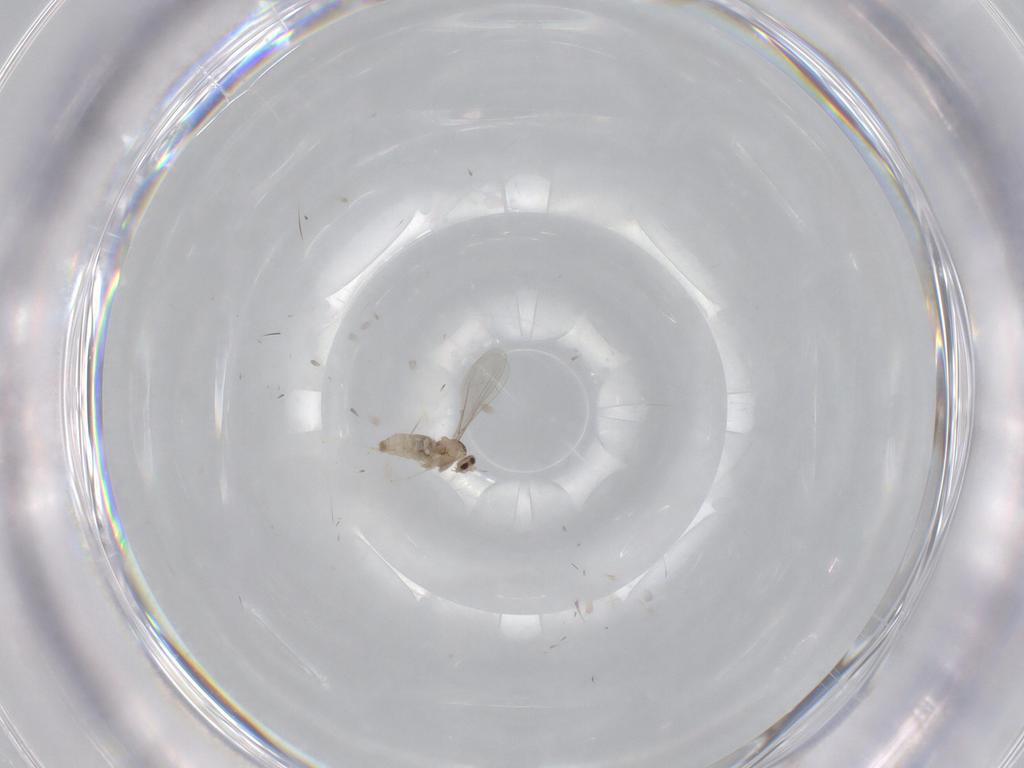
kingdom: Animalia
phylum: Arthropoda
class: Insecta
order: Diptera
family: Cecidomyiidae
